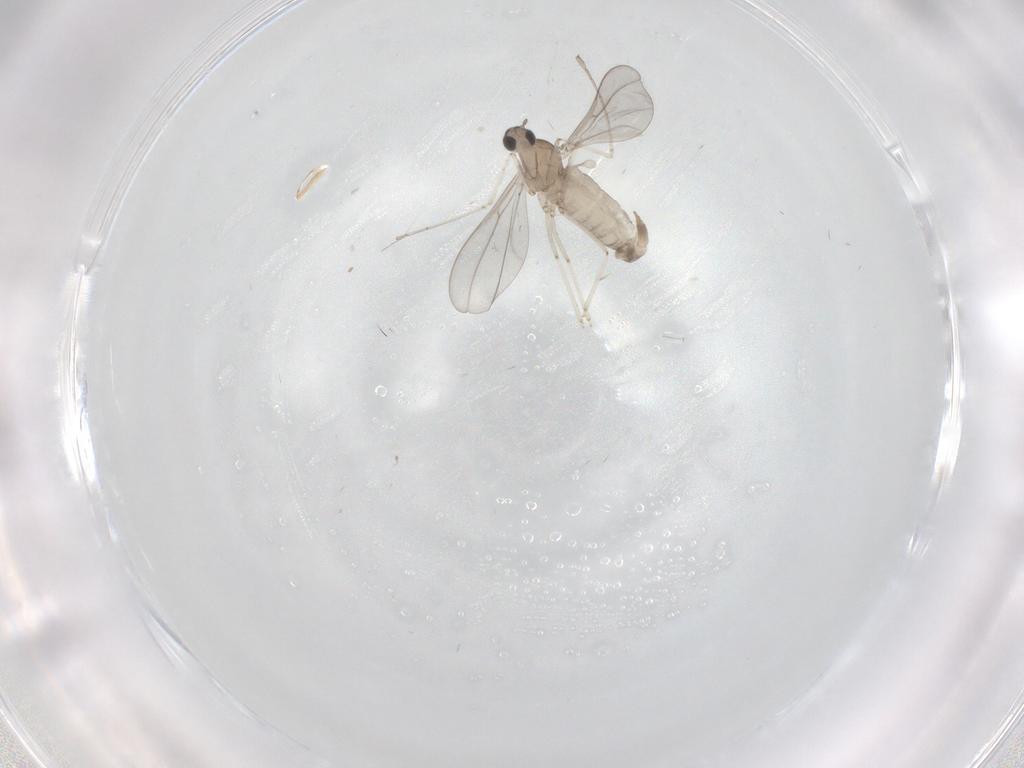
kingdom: Animalia
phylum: Arthropoda
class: Insecta
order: Diptera
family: Cecidomyiidae
